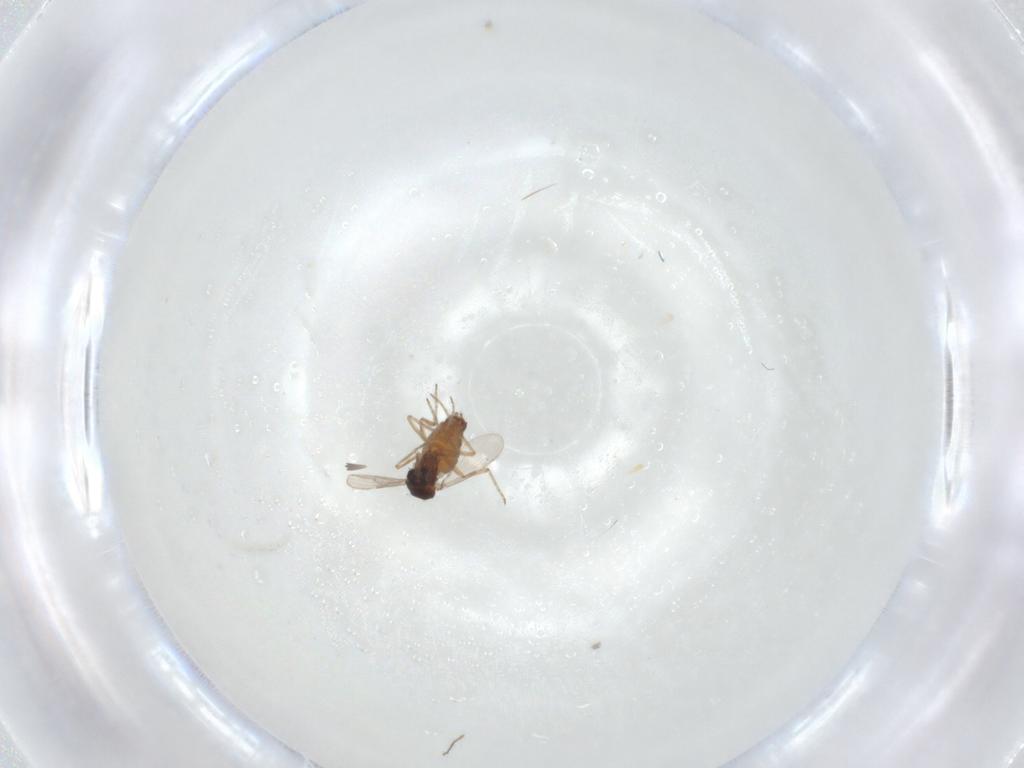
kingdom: Animalia
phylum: Arthropoda
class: Insecta
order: Diptera
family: Ceratopogonidae
